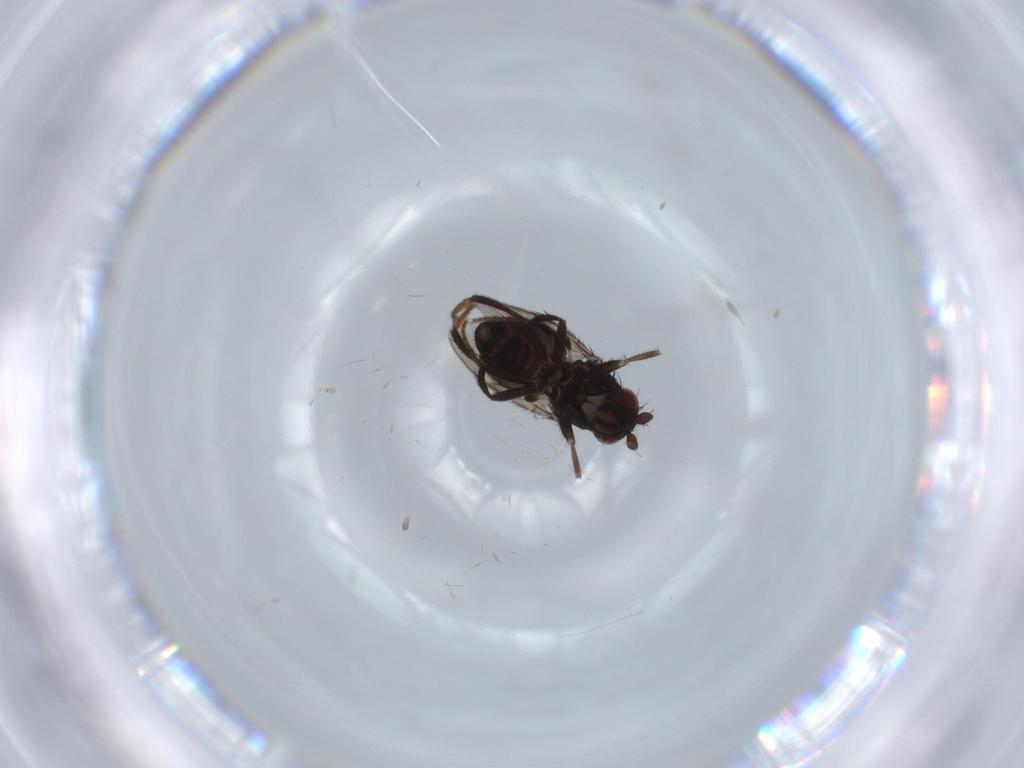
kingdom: Animalia
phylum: Arthropoda
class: Insecta
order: Diptera
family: Sphaeroceridae
